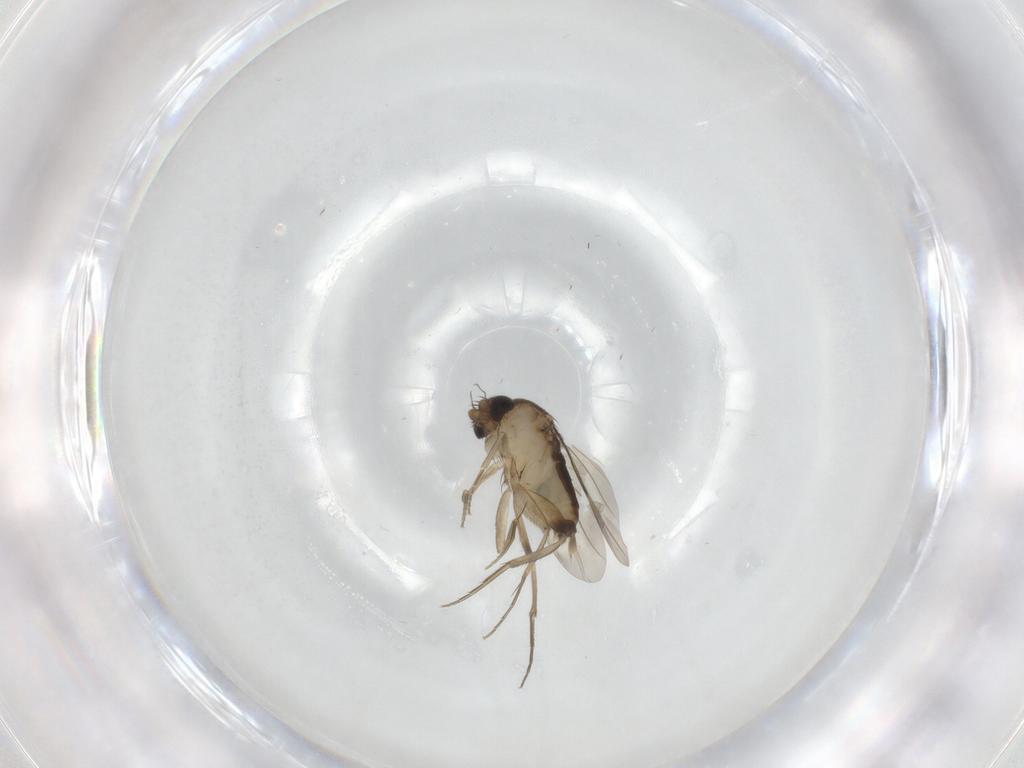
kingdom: Animalia
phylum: Arthropoda
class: Insecta
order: Diptera
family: Phoridae
